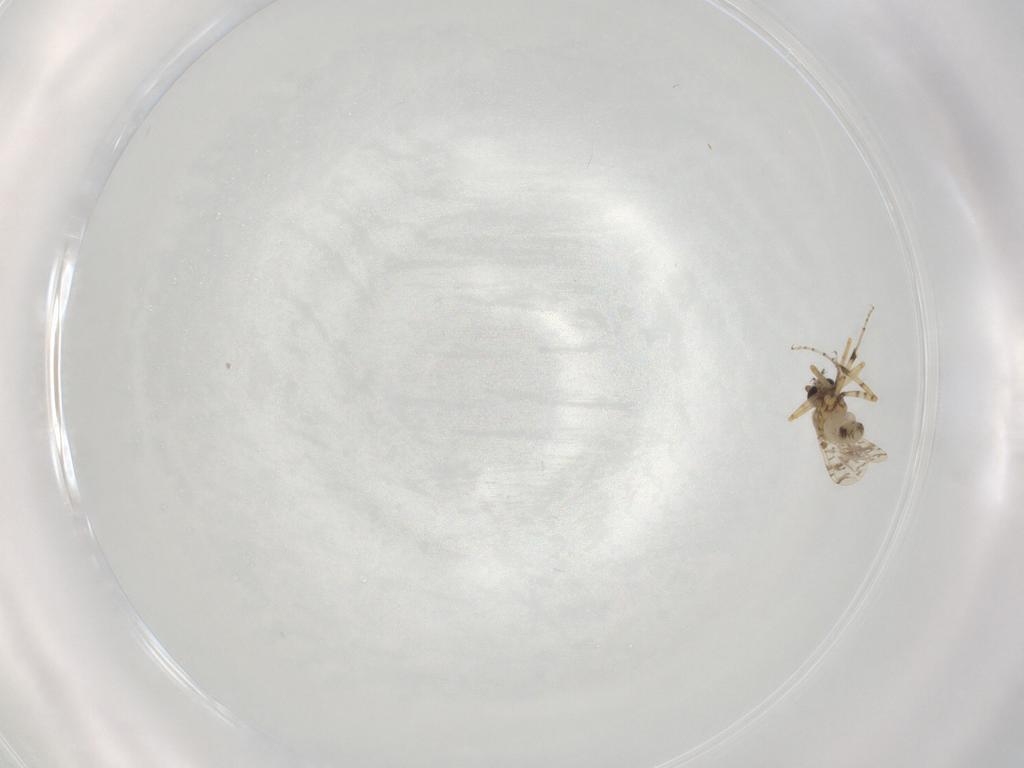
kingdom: Animalia
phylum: Arthropoda
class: Insecta
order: Diptera
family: Ceratopogonidae
